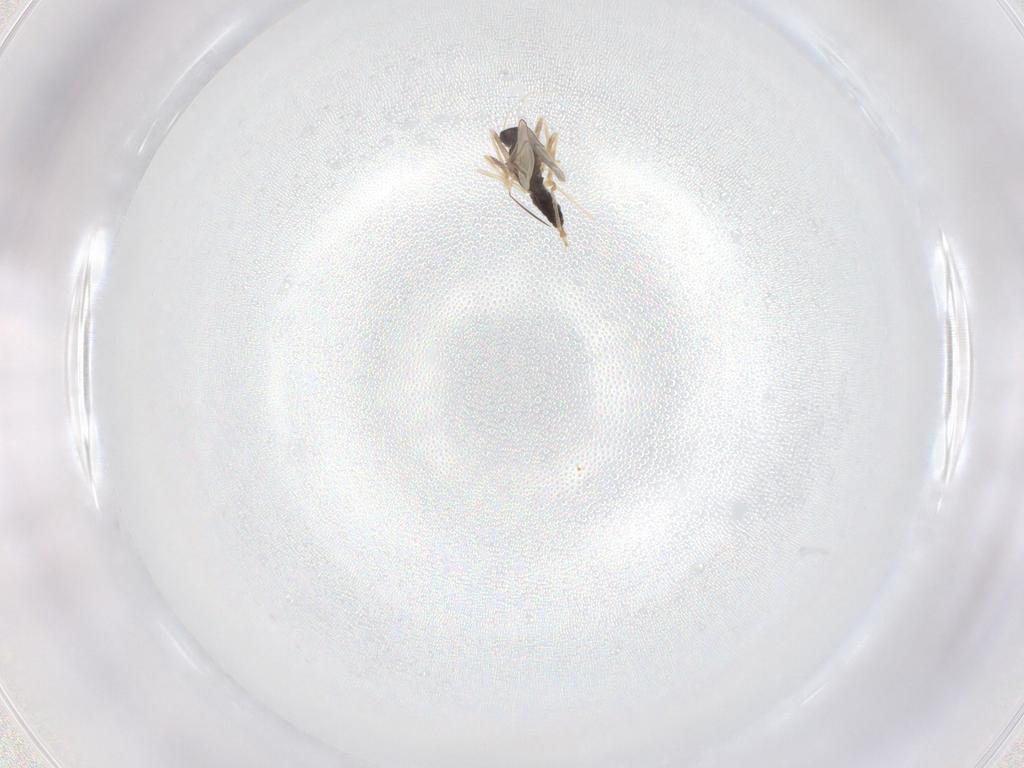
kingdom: Animalia
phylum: Arthropoda
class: Insecta
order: Diptera
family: Cecidomyiidae
